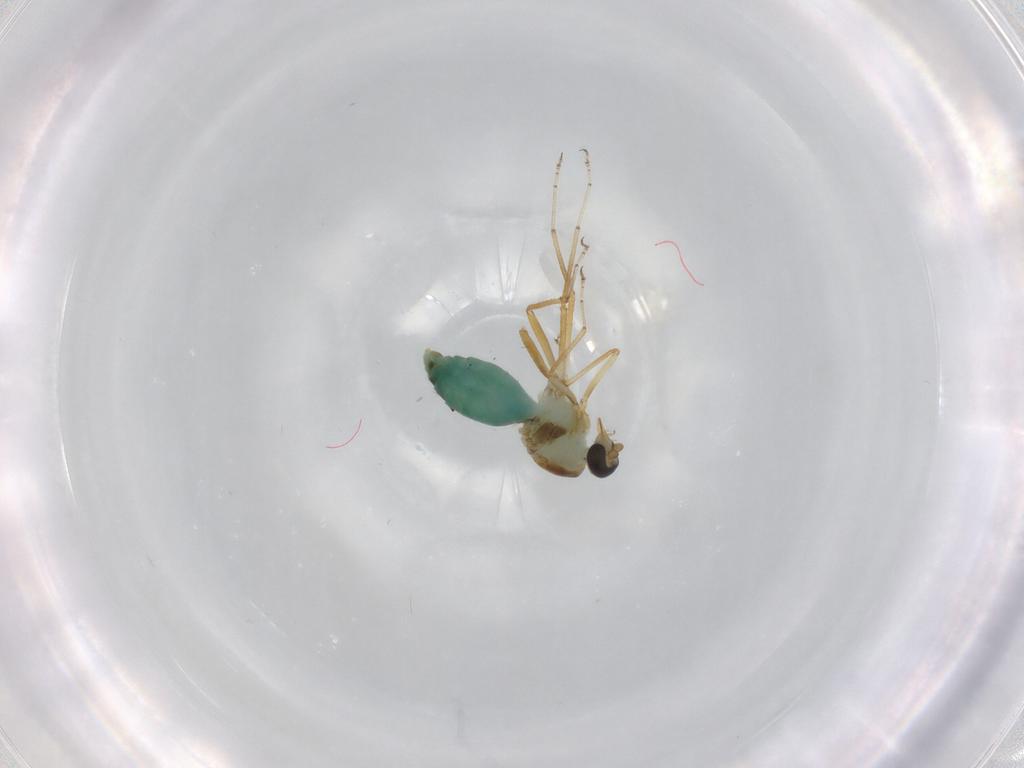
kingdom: Animalia
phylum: Arthropoda
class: Insecta
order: Diptera
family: Ceratopogonidae
